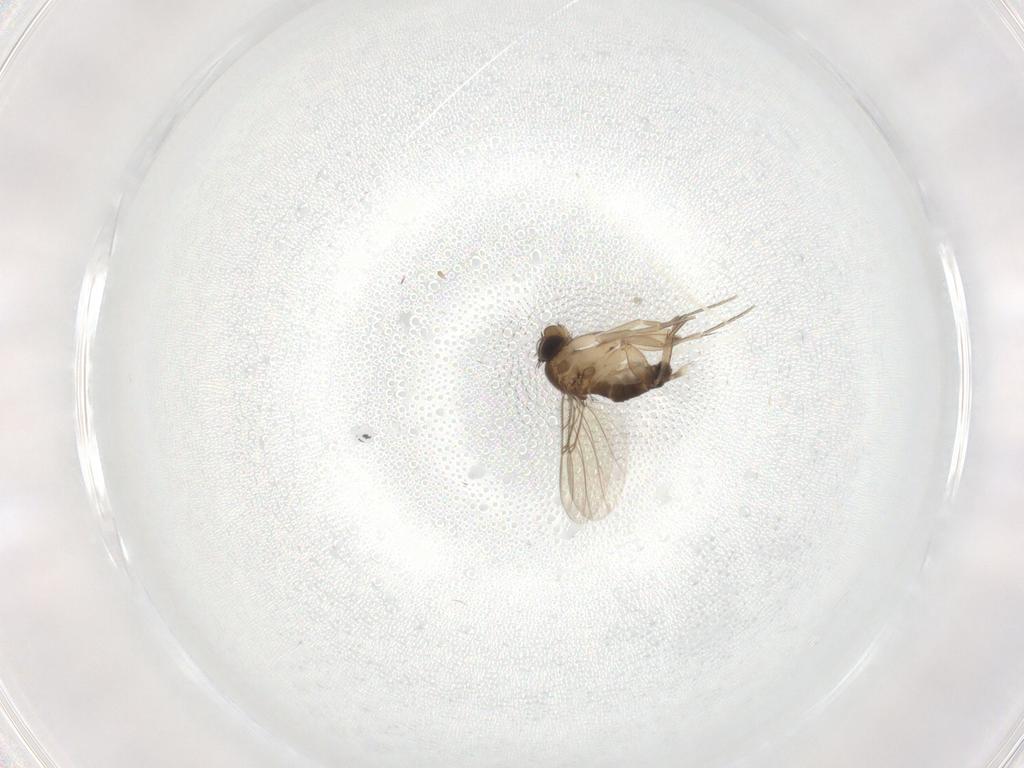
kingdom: Animalia
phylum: Arthropoda
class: Insecta
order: Diptera
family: Phoridae
